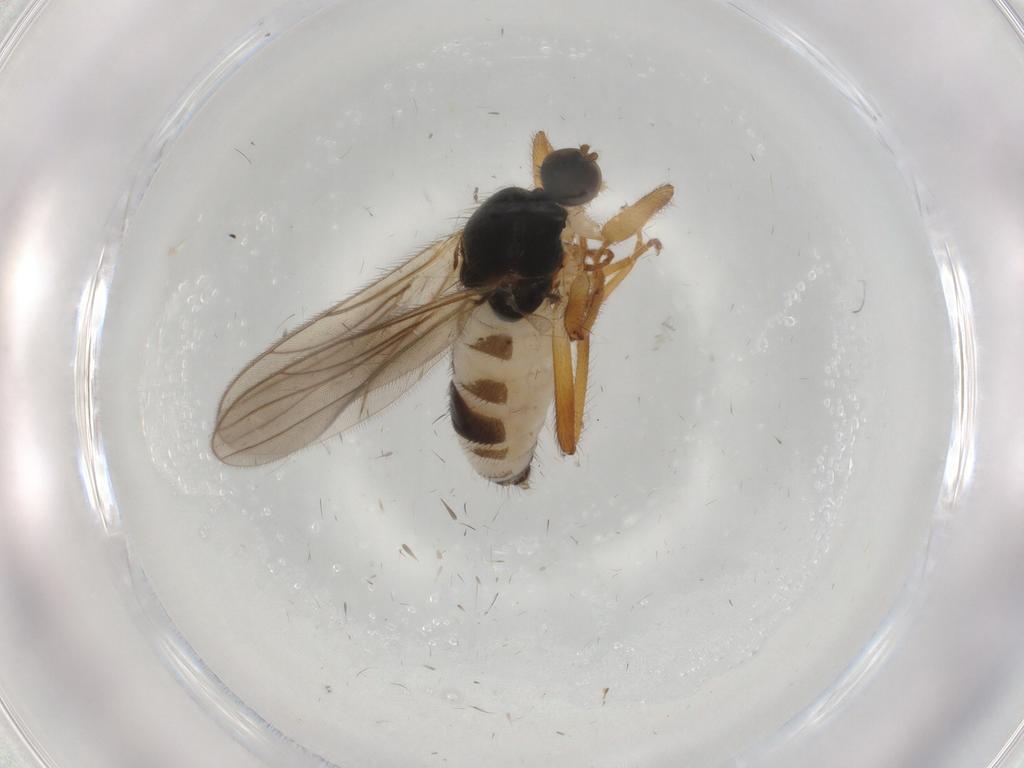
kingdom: Animalia
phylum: Arthropoda
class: Insecta
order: Diptera
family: Hybotidae
